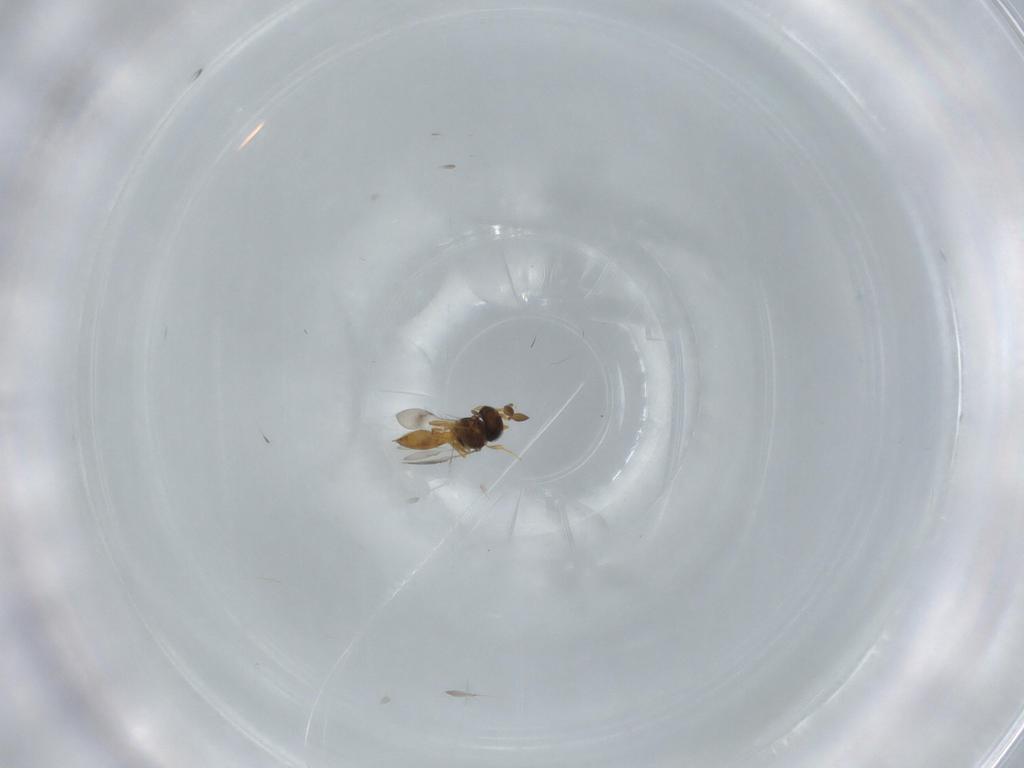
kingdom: Animalia
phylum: Arthropoda
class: Insecta
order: Hymenoptera
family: Scelionidae
